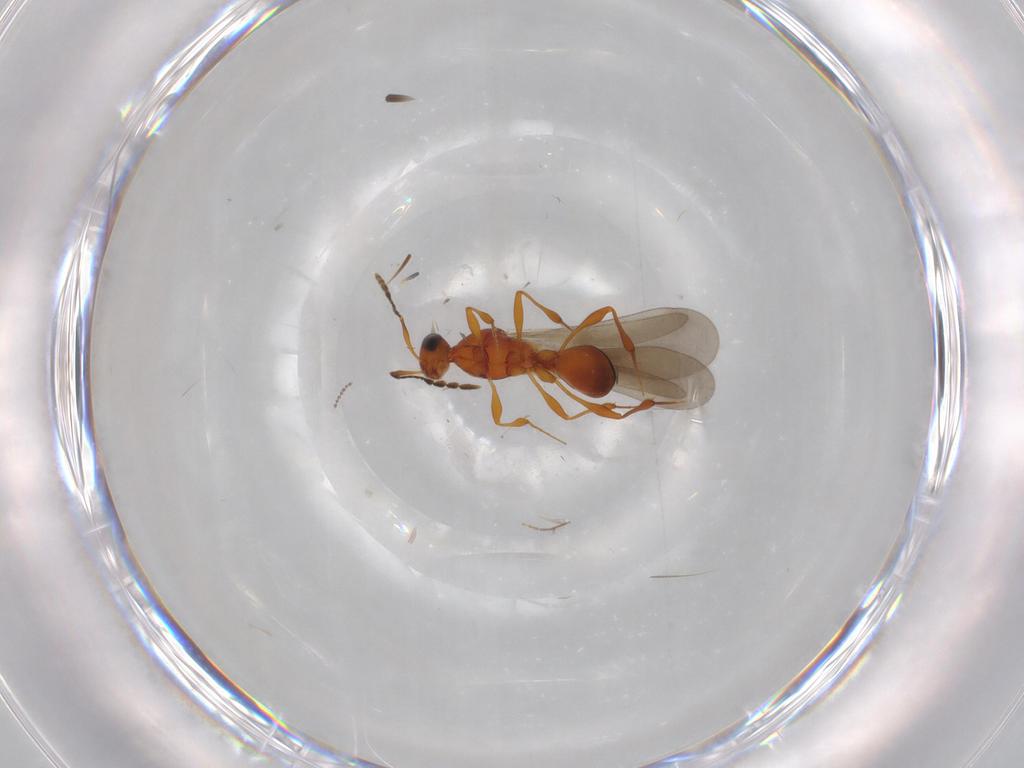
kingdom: Animalia
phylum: Arthropoda
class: Insecta
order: Hymenoptera
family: Platygastridae
